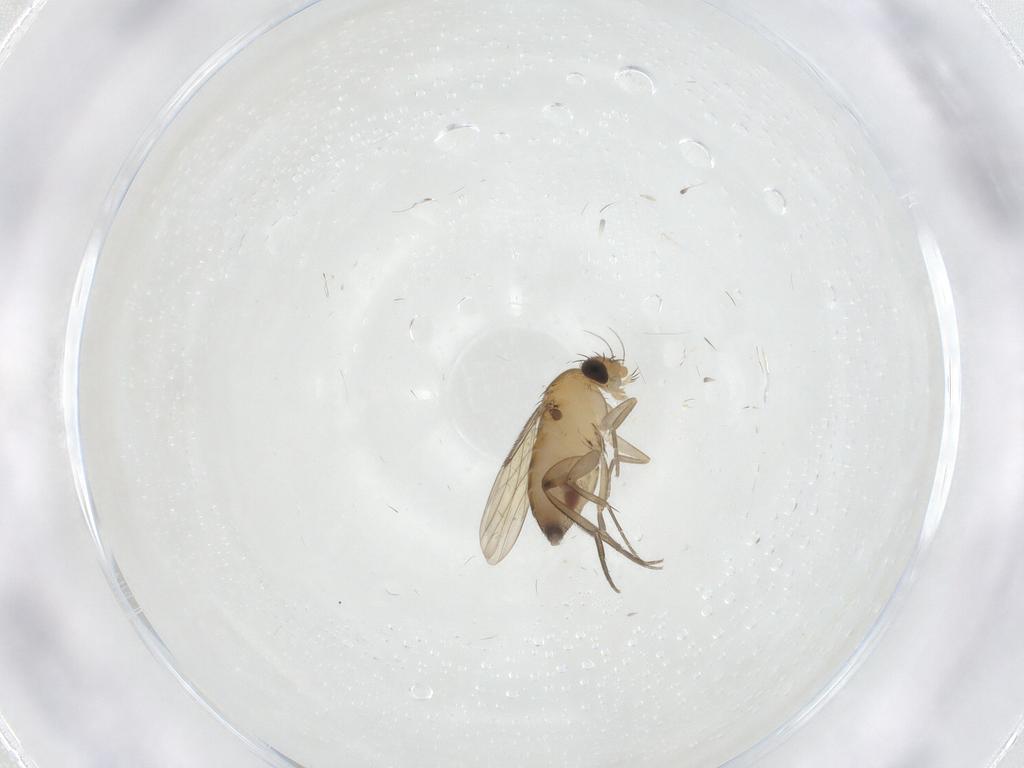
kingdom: Animalia
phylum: Arthropoda
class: Insecta
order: Diptera
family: Phoridae
